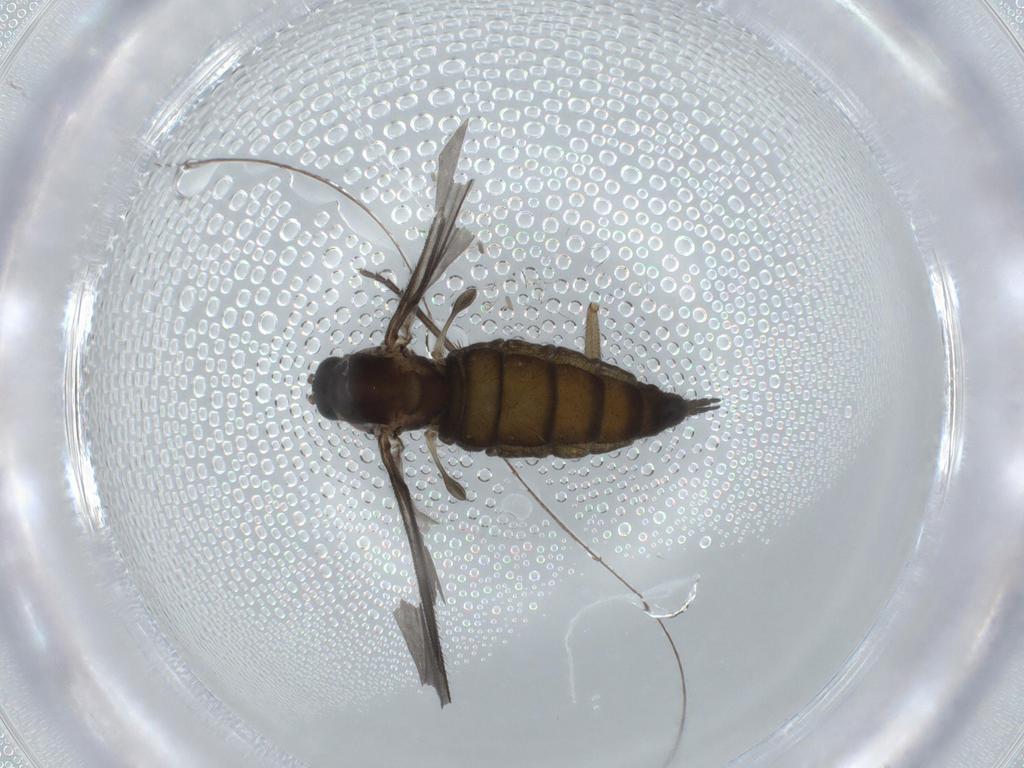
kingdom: Animalia
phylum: Arthropoda
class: Insecta
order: Diptera
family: Sciaridae
